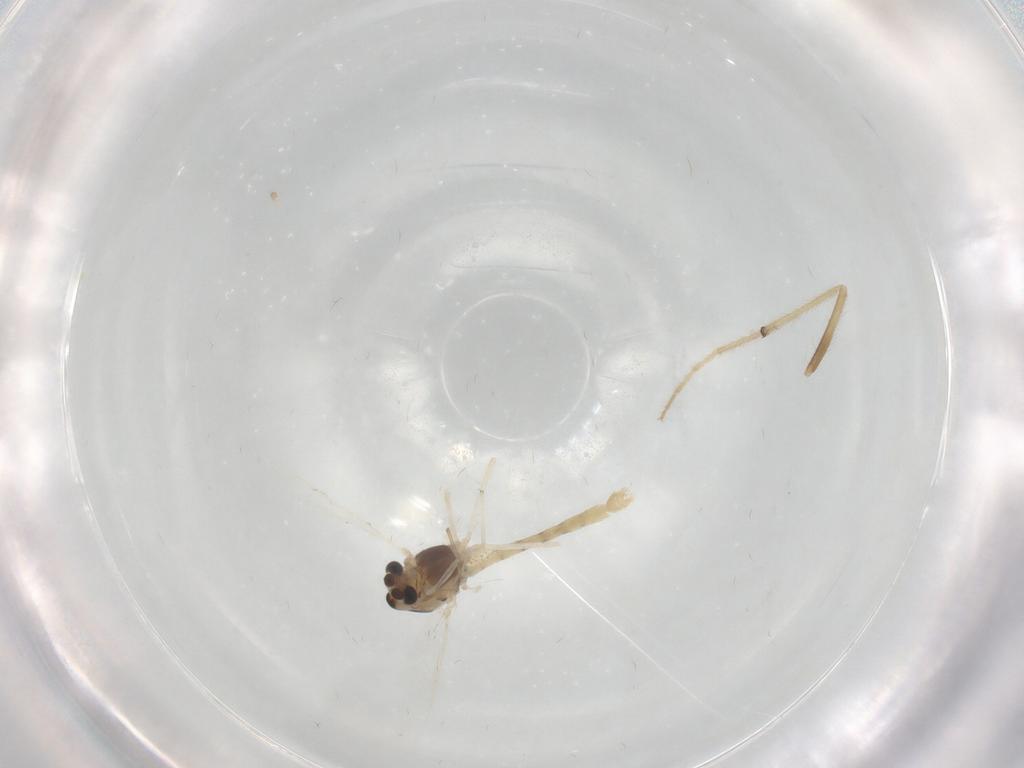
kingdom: Animalia
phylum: Arthropoda
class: Insecta
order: Diptera
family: Chironomidae
